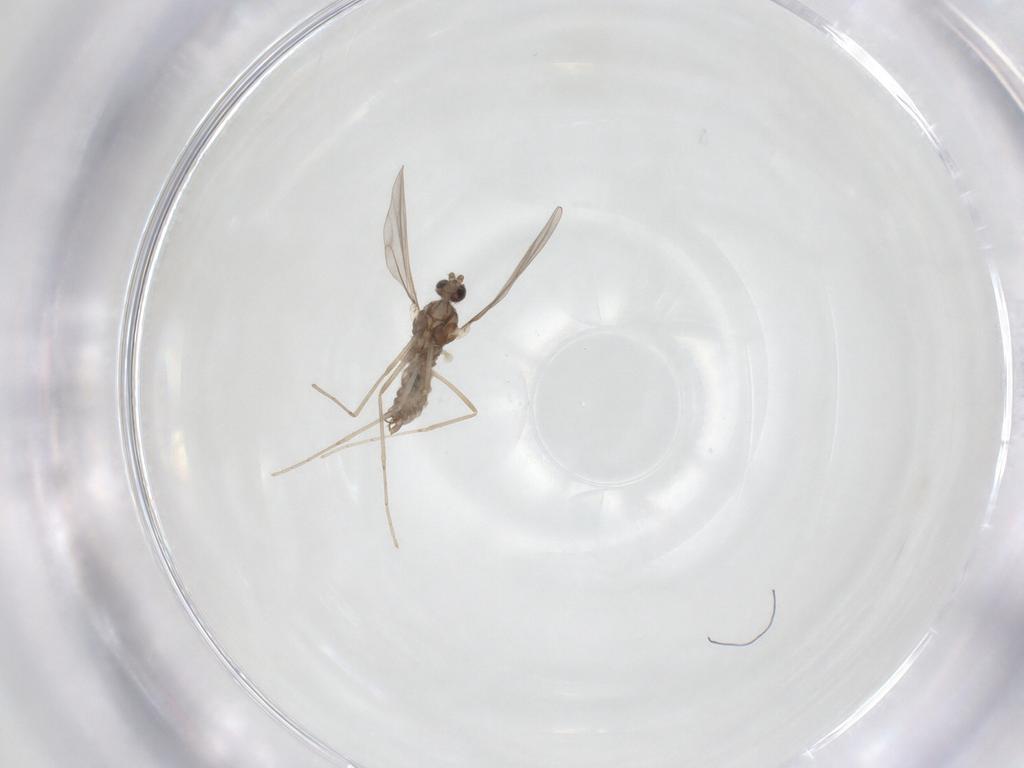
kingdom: Animalia
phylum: Arthropoda
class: Insecta
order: Diptera
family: Cecidomyiidae
